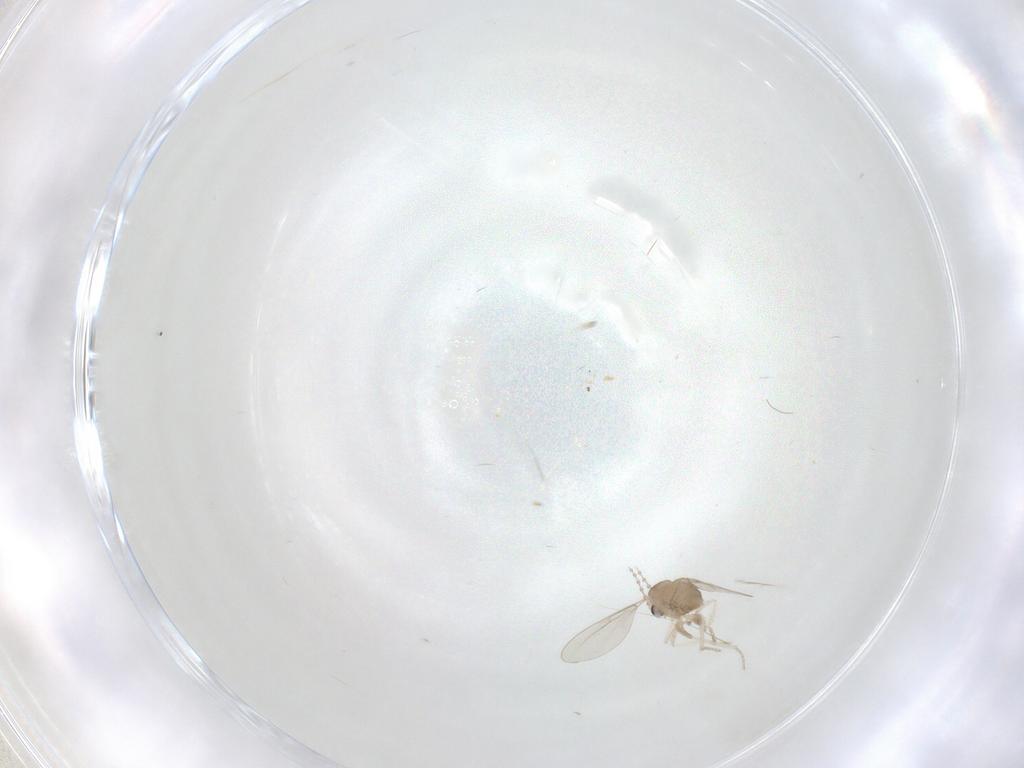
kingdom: Animalia
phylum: Arthropoda
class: Insecta
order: Diptera
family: Cecidomyiidae
